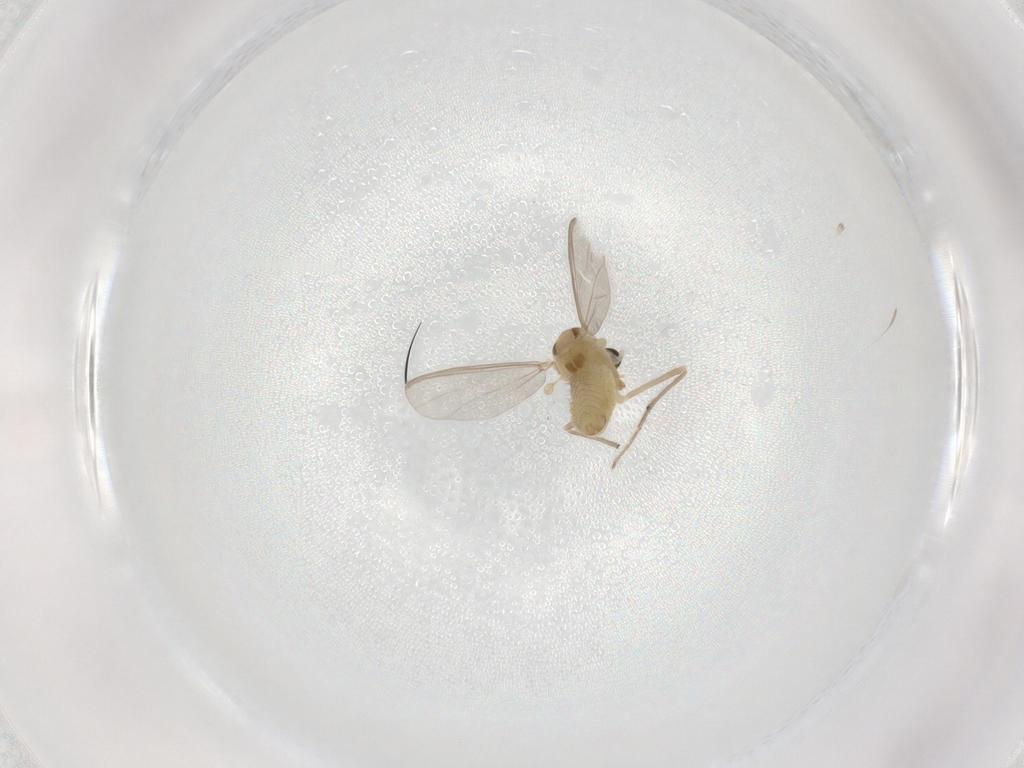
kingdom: Animalia
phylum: Arthropoda
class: Insecta
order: Diptera
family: Chironomidae
